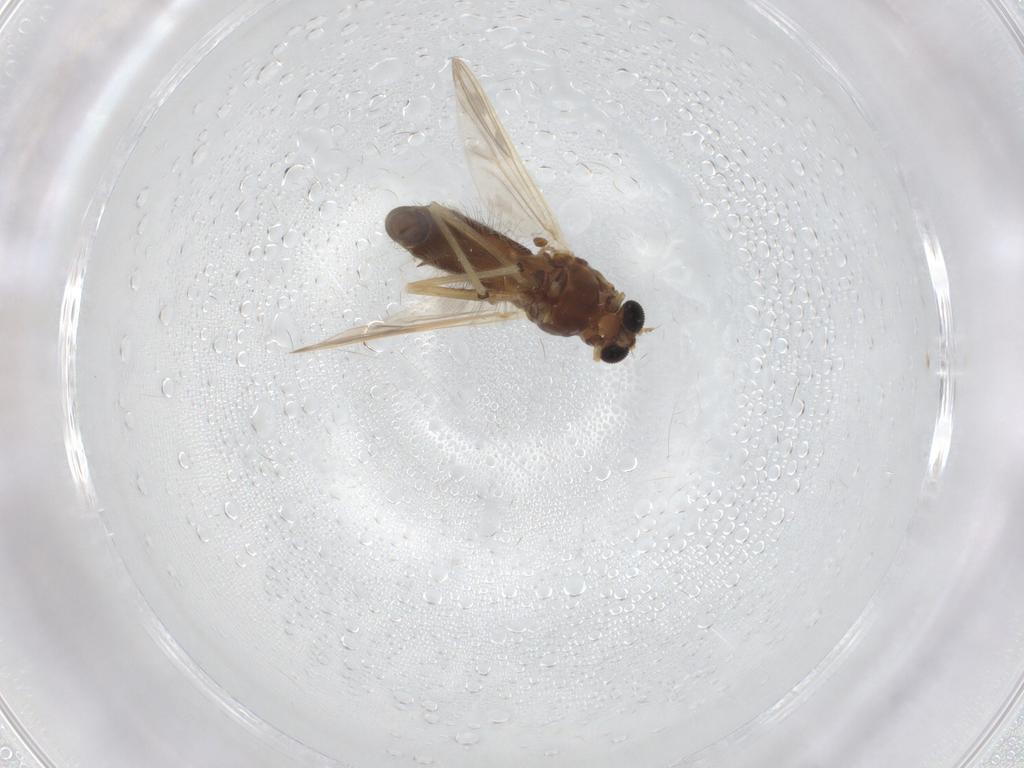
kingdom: Animalia
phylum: Arthropoda
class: Insecta
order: Diptera
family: Chironomidae
